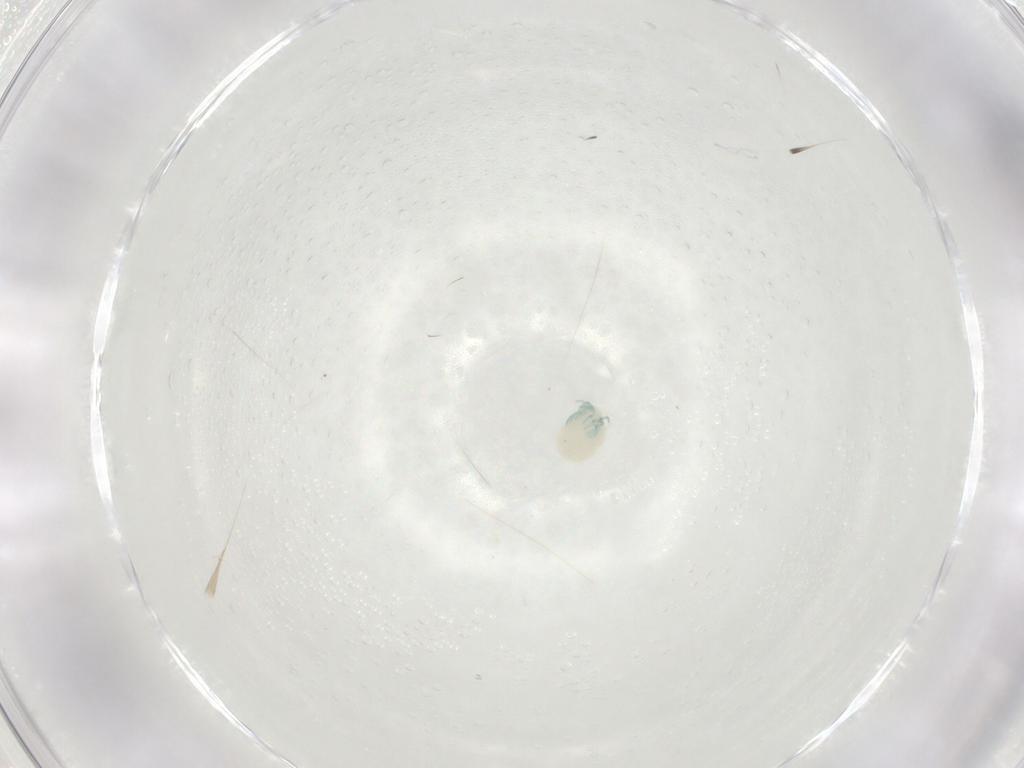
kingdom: Animalia
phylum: Arthropoda
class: Arachnida
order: Trombidiformes
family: Arrenuridae
